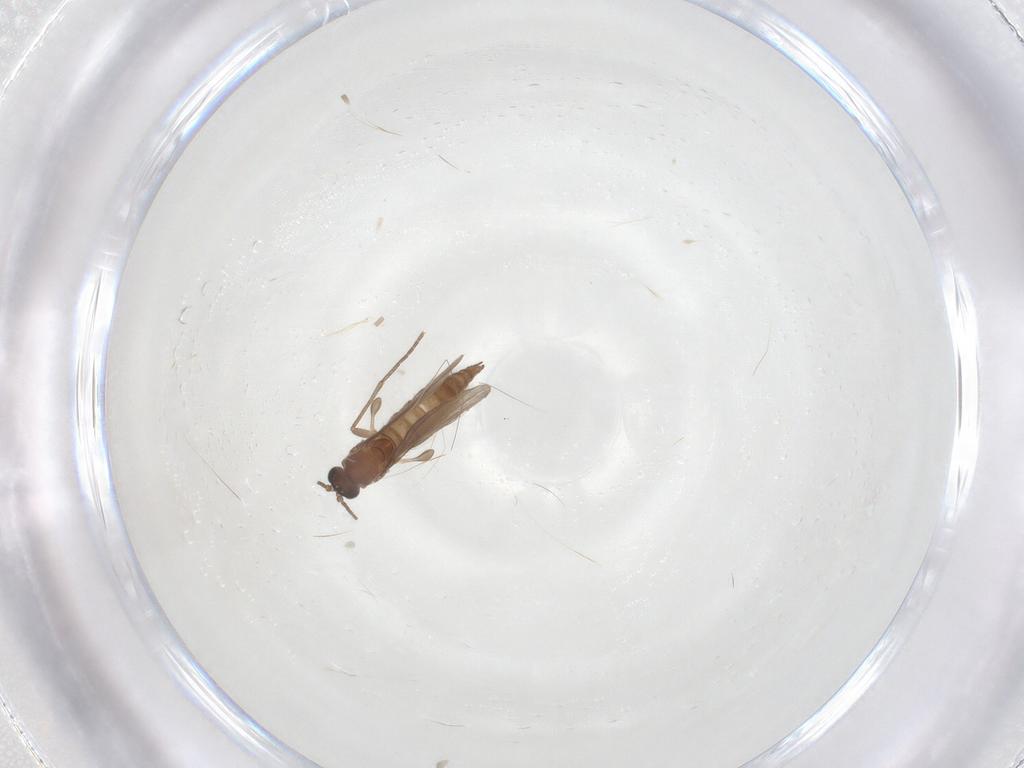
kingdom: Animalia
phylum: Arthropoda
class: Insecta
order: Diptera
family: Sciaridae
